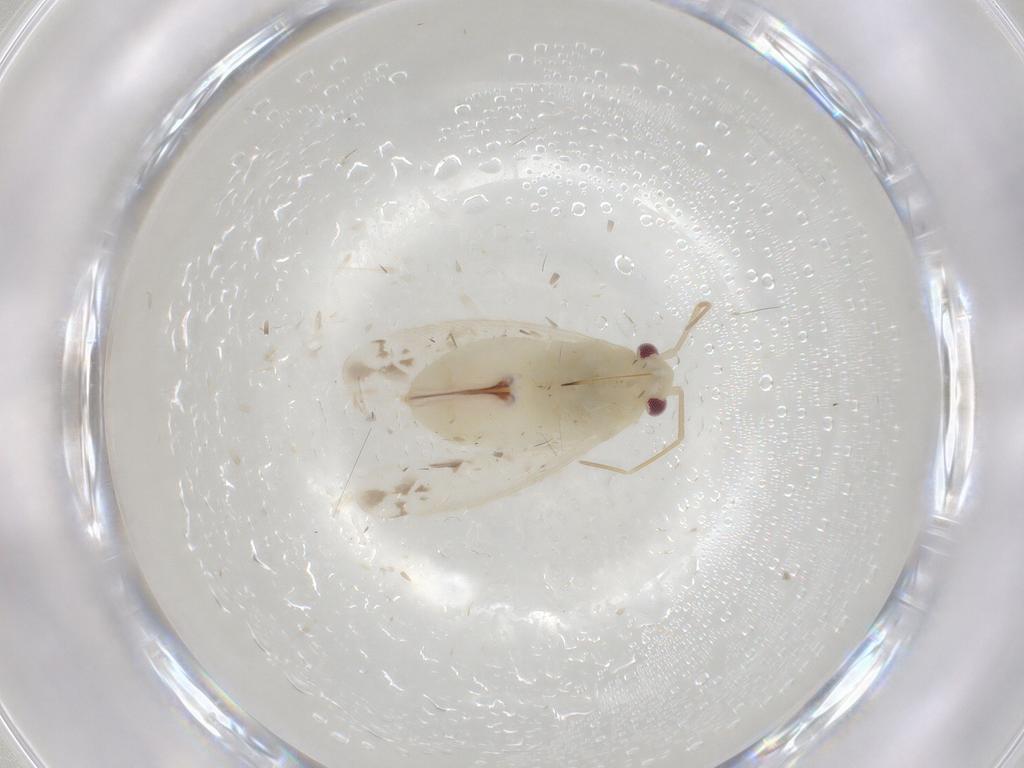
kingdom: Animalia
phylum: Arthropoda
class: Insecta
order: Hemiptera
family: Miridae
